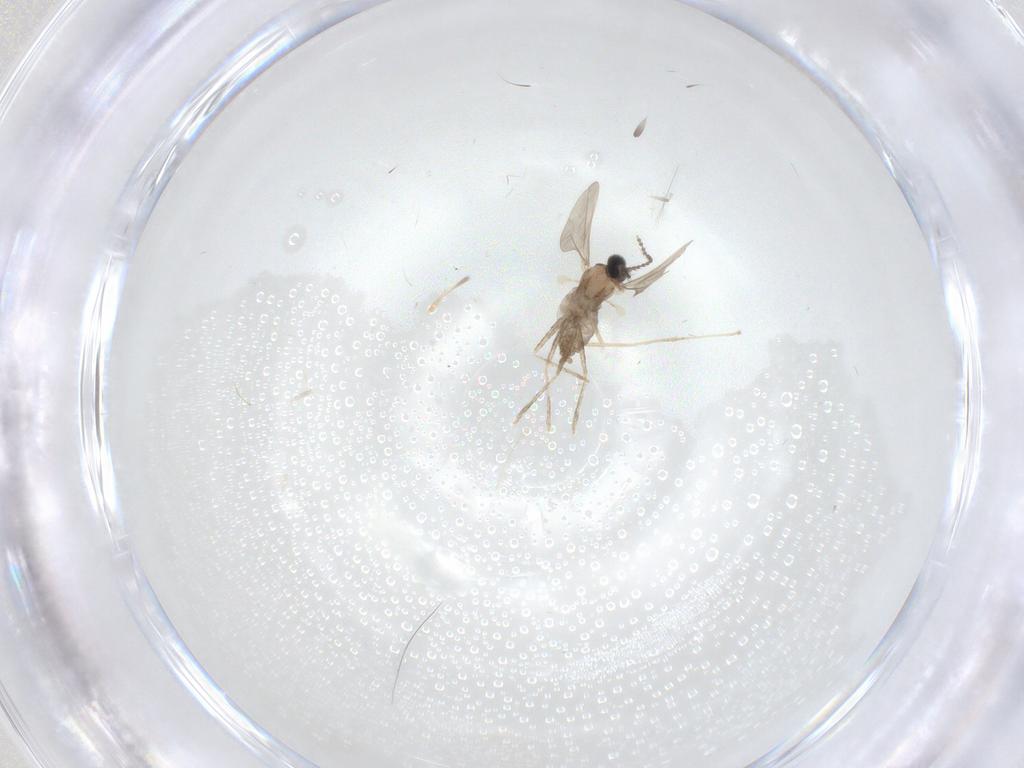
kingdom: Animalia
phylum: Arthropoda
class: Insecta
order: Diptera
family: Cecidomyiidae
